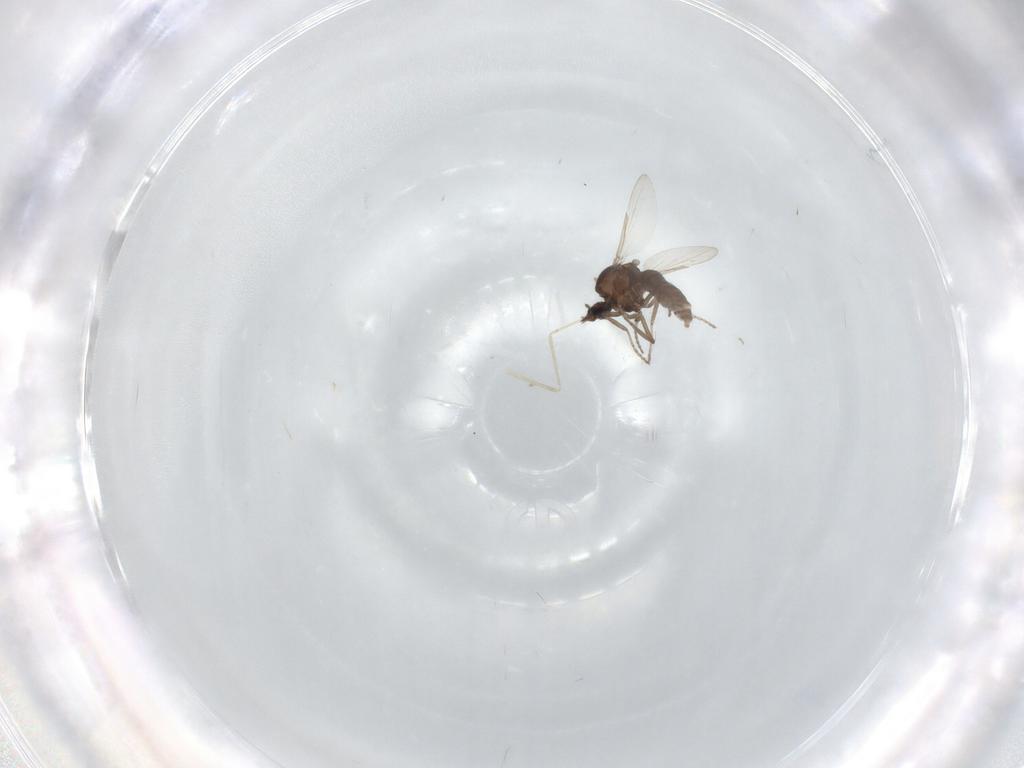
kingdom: Animalia
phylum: Arthropoda
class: Insecta
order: Diptera
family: Ceratopogonidae
